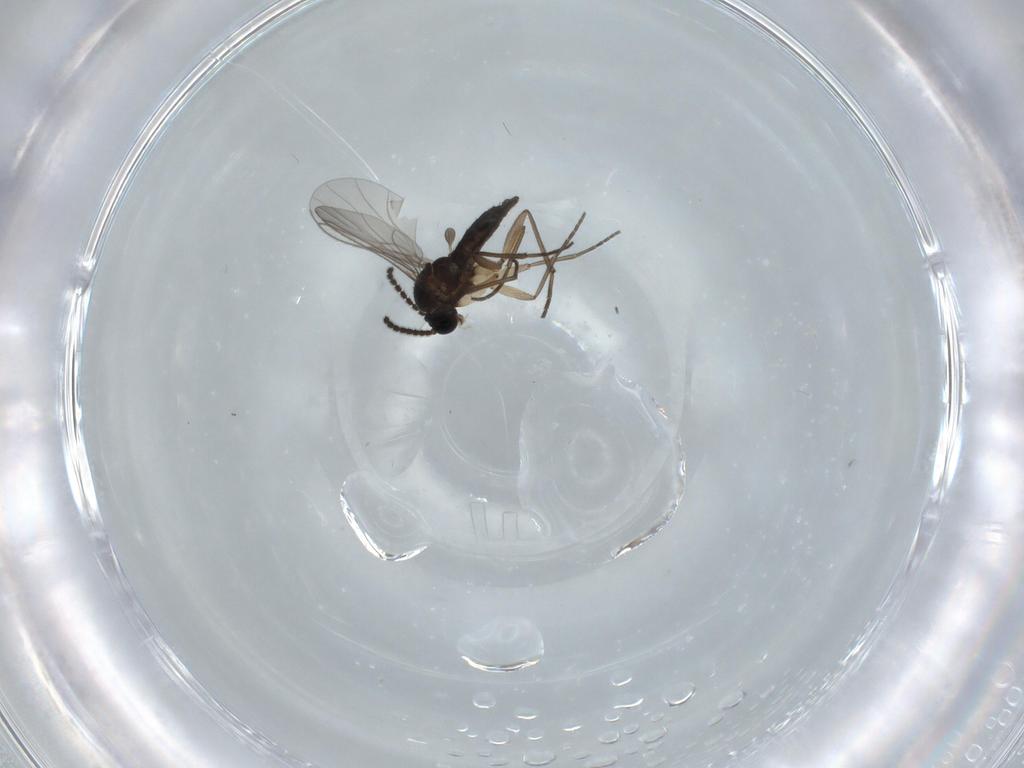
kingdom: Animalia
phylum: Arthropoda
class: Insecta
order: Diptera
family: Sciaridae
